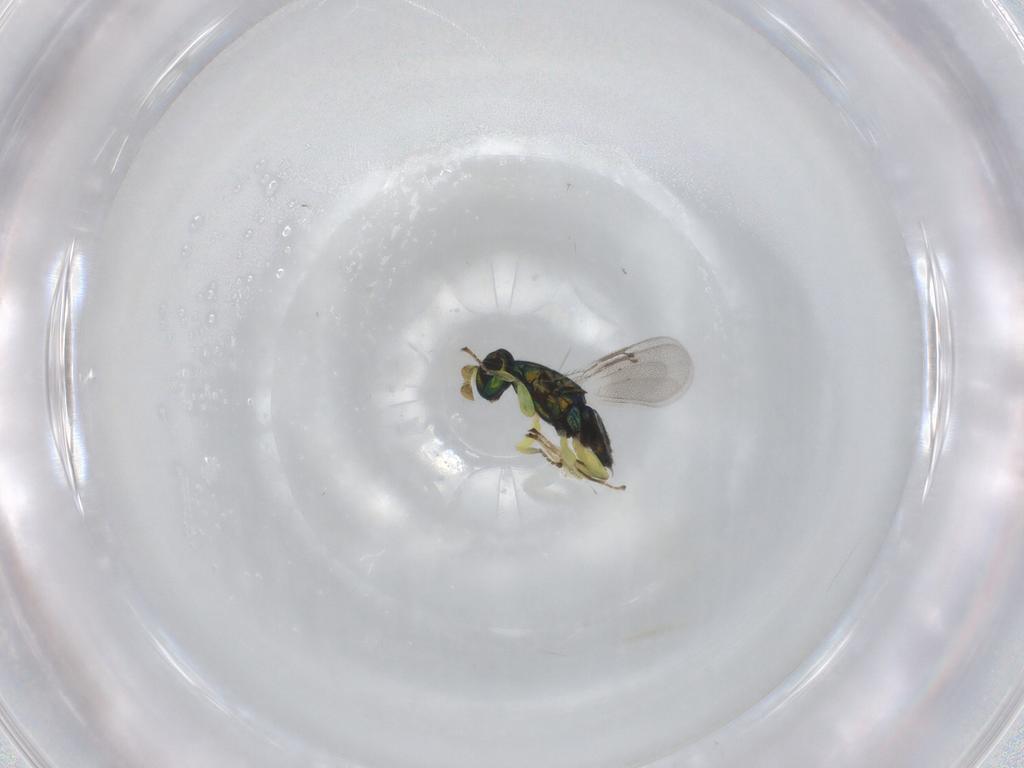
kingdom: Animalia
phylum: Arthropoda
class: Insecta
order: Hymenoptera
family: Eulophidae
